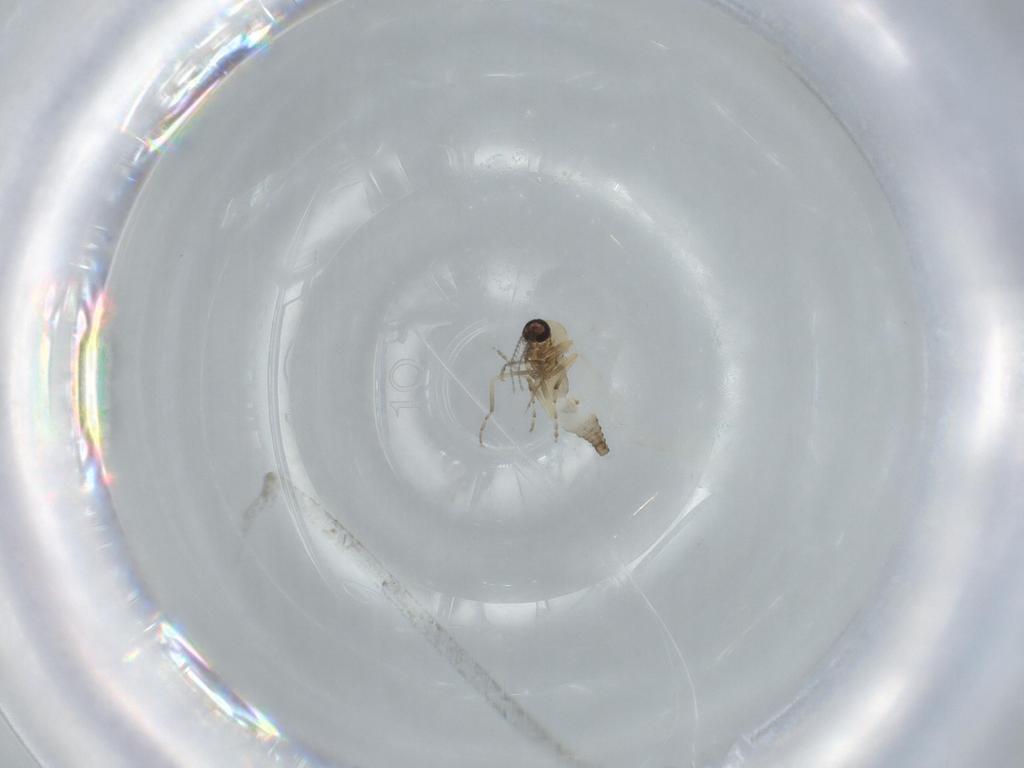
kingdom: Animalia
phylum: Arthropoda
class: Insecta
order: Diptera
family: Ceratopogonidae
